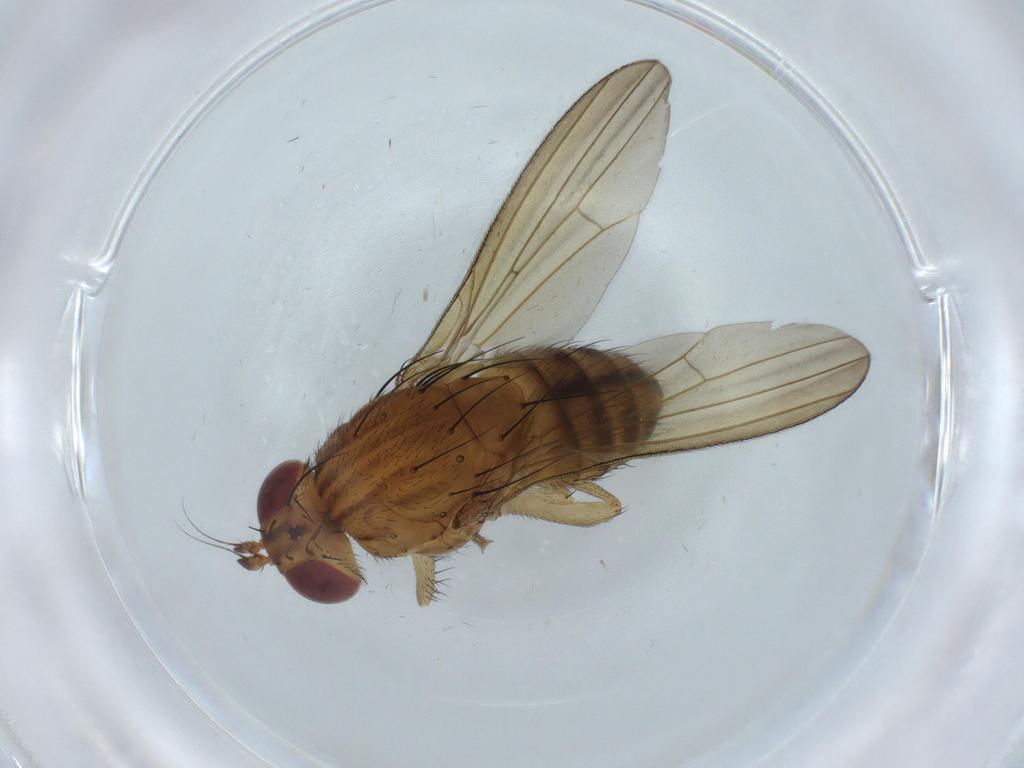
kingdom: Animalia
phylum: Arthropoda
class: Insecta
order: Diptera
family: Lauxaniidae
